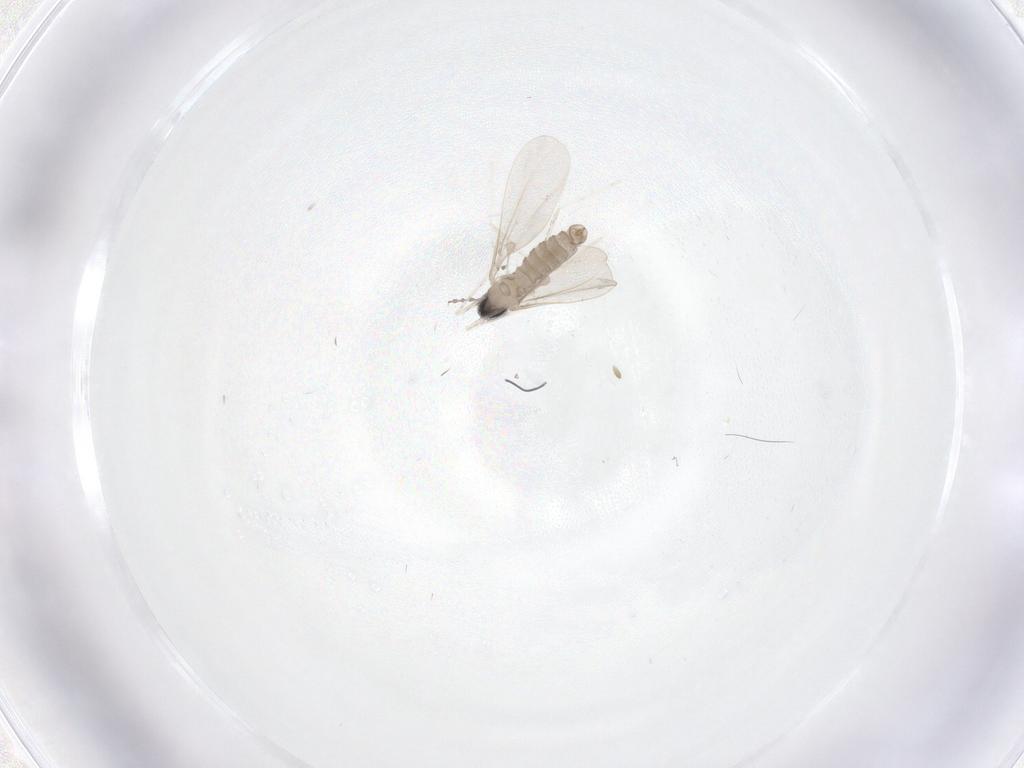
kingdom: Animalia
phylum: Arthropoda
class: Insecta
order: Diptera
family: Cecidomyiidae
